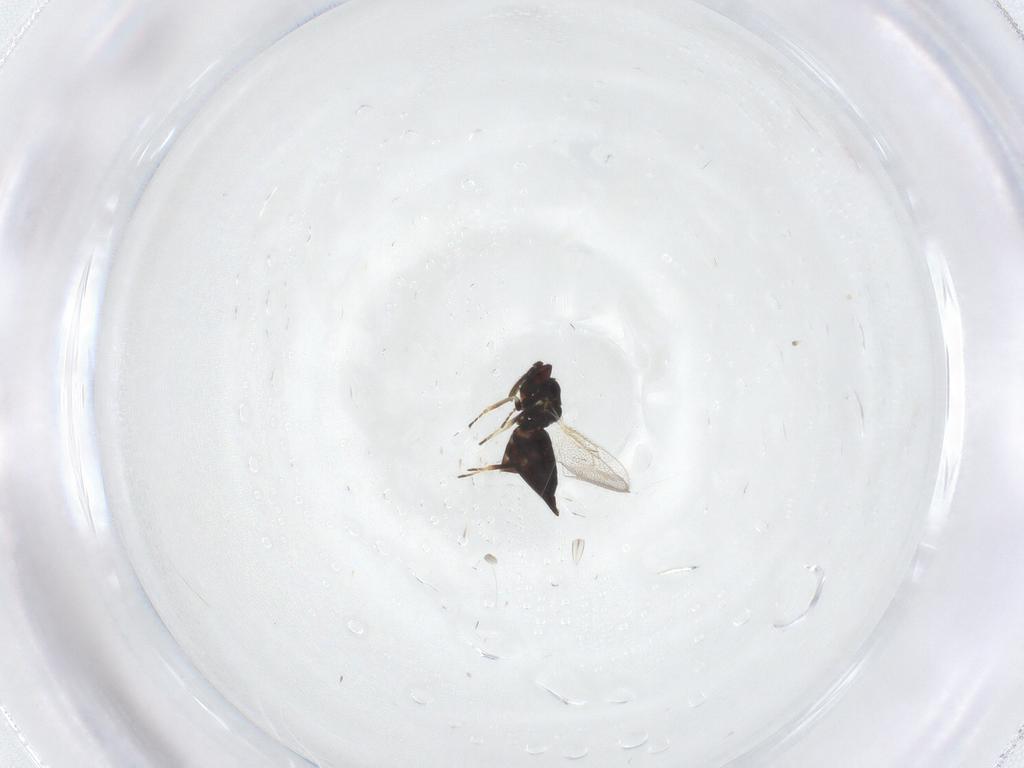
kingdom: Animalia
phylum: Arthropoda
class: Insecta
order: Hymenoptera
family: Eulophidae
